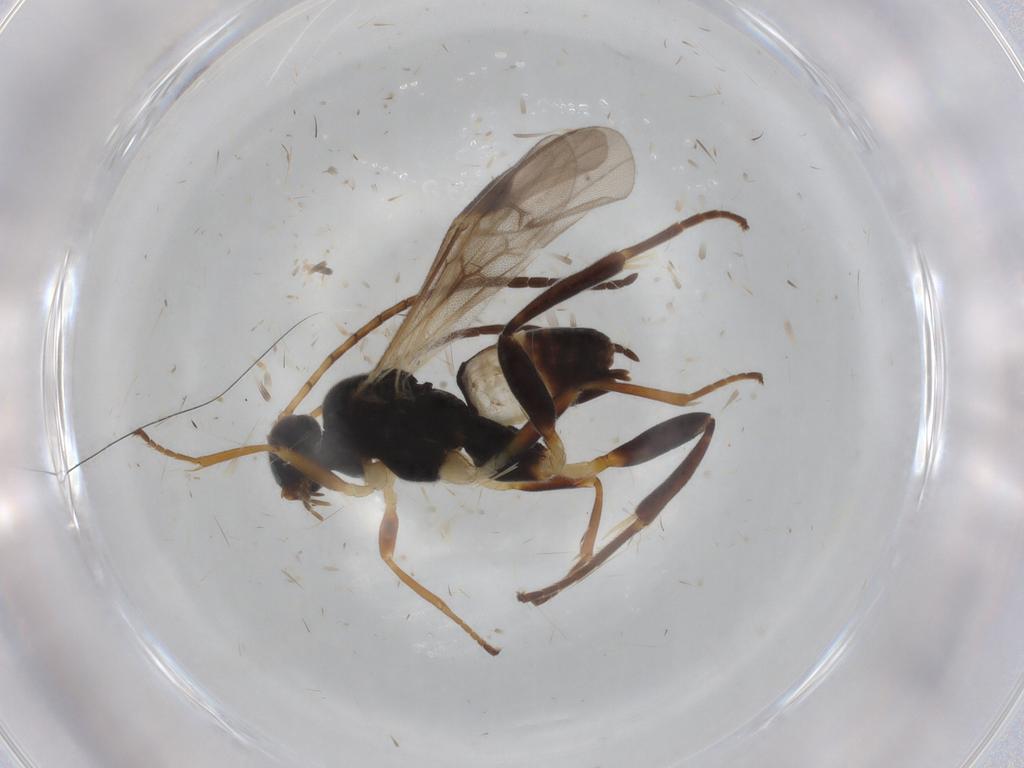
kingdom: Animalia
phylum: Arthropoda
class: Insecta
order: Hymenoptera
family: Braconidae
